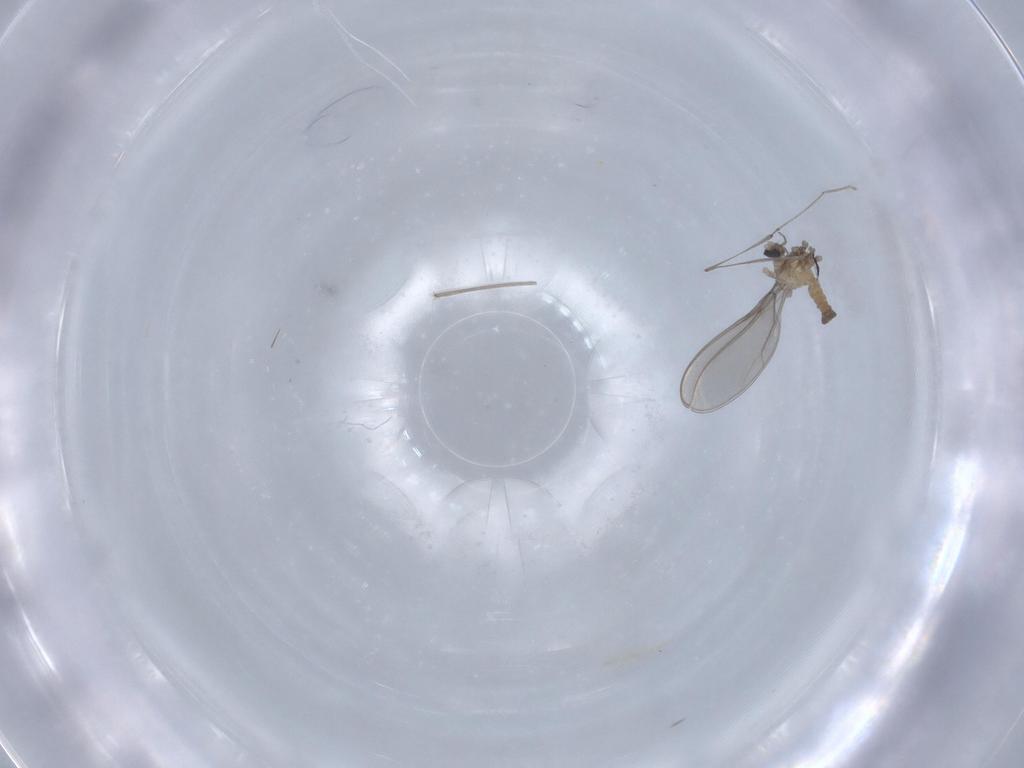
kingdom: Animalia
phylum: Arthropoda
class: Insecta
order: Diptera
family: Cecidomyiidae
